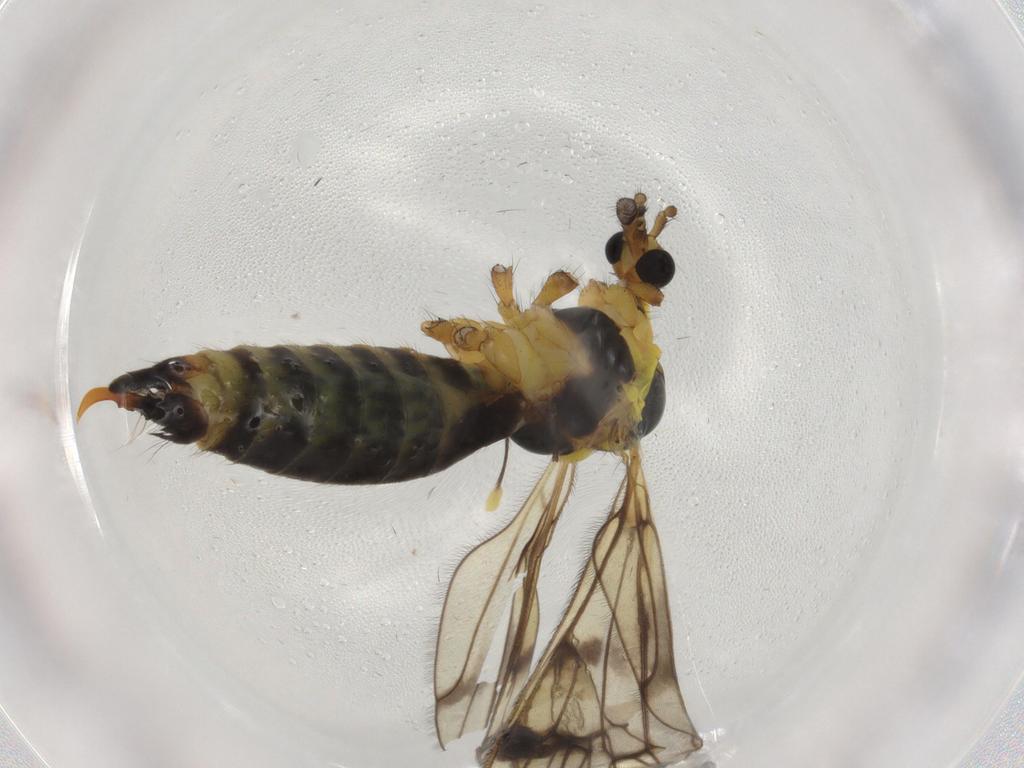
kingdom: Animalia
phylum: Arthropoda
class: Insecta
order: Diptera
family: Limoniidae
